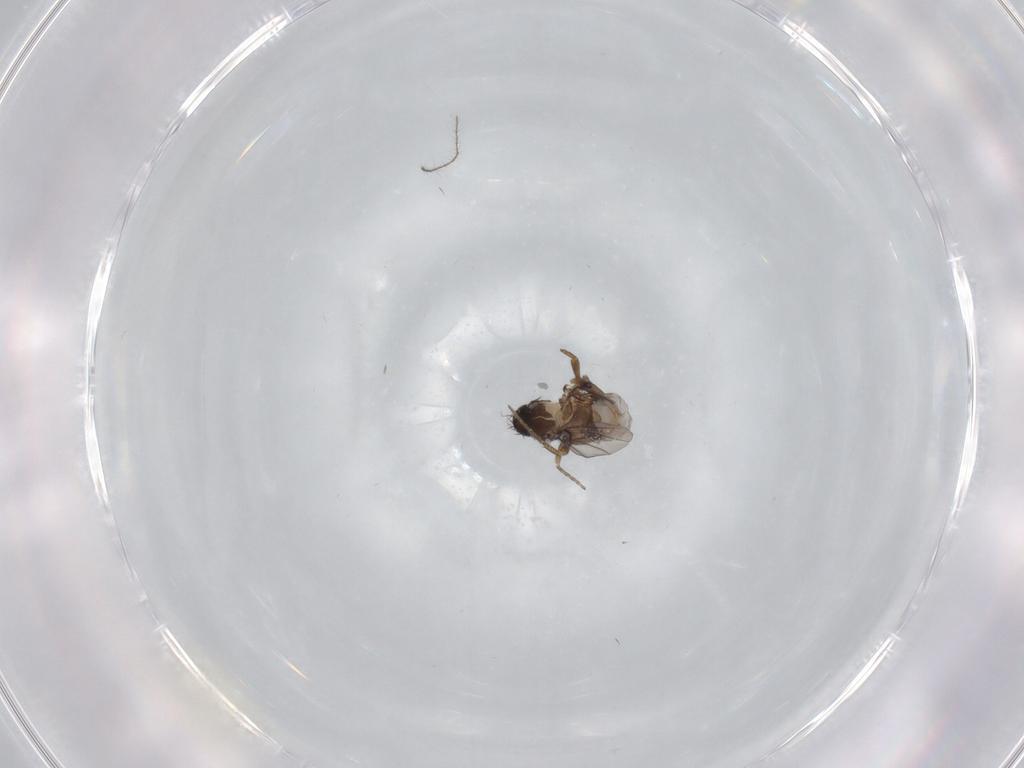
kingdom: Animalia
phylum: Arthropoda
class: Insecta
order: Diptera
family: Cecidomyiidae
